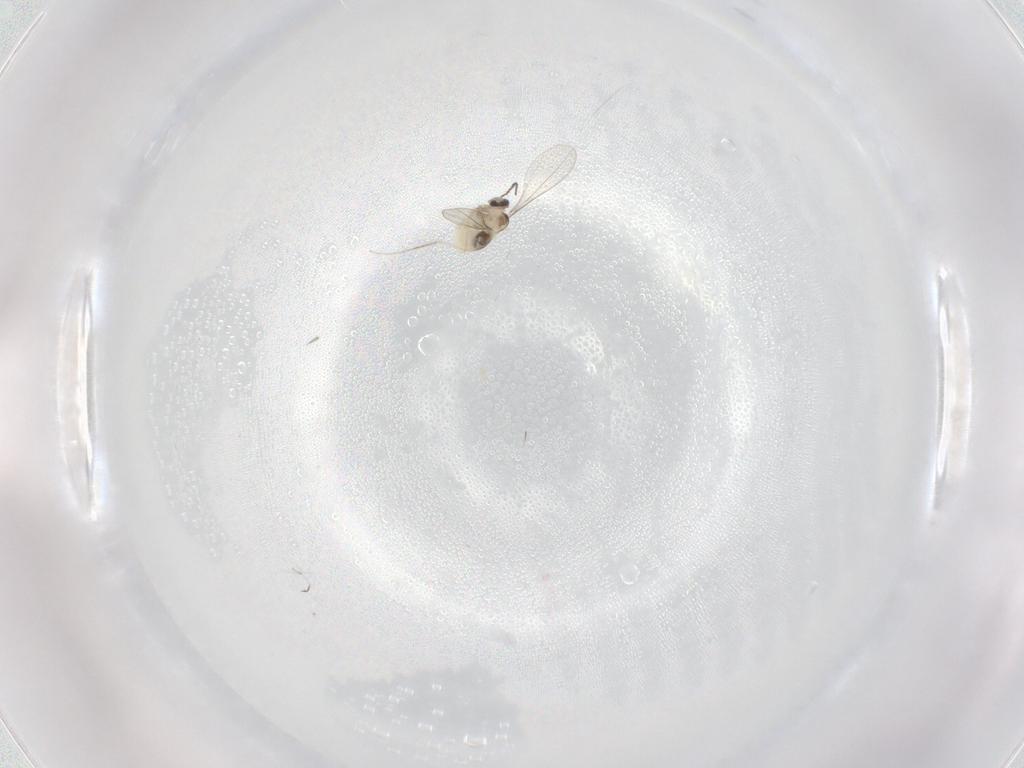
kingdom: Animalia
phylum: Arthropoda
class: Insecta
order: Diptera
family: Cecidomyiidae
